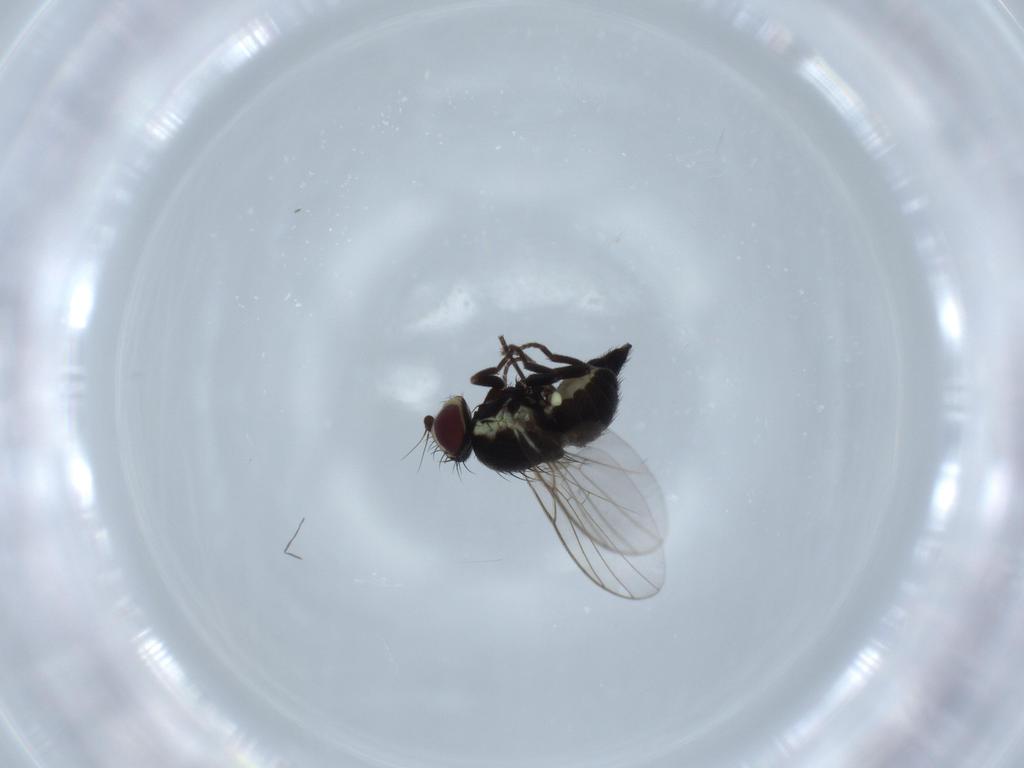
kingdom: Animalia
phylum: Arthropoda
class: Insecta
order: Diptera
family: Agromyzidae
